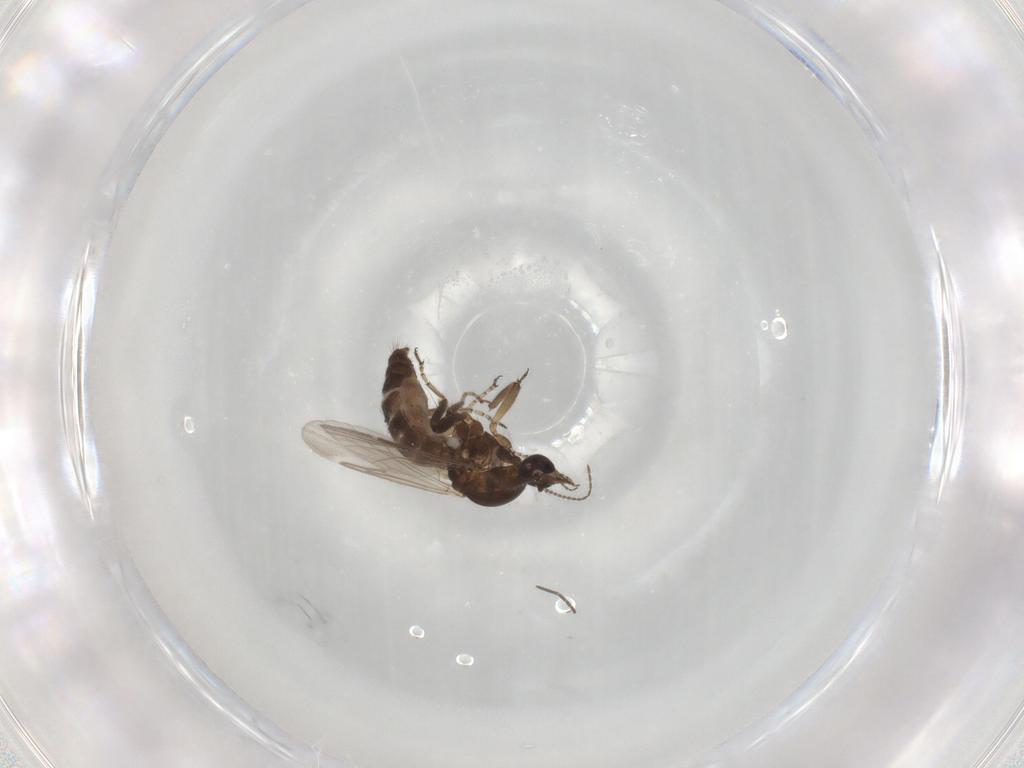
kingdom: Animalia
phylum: Arthropoda
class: Insecta
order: Diptera
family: Ceratopogonidae
